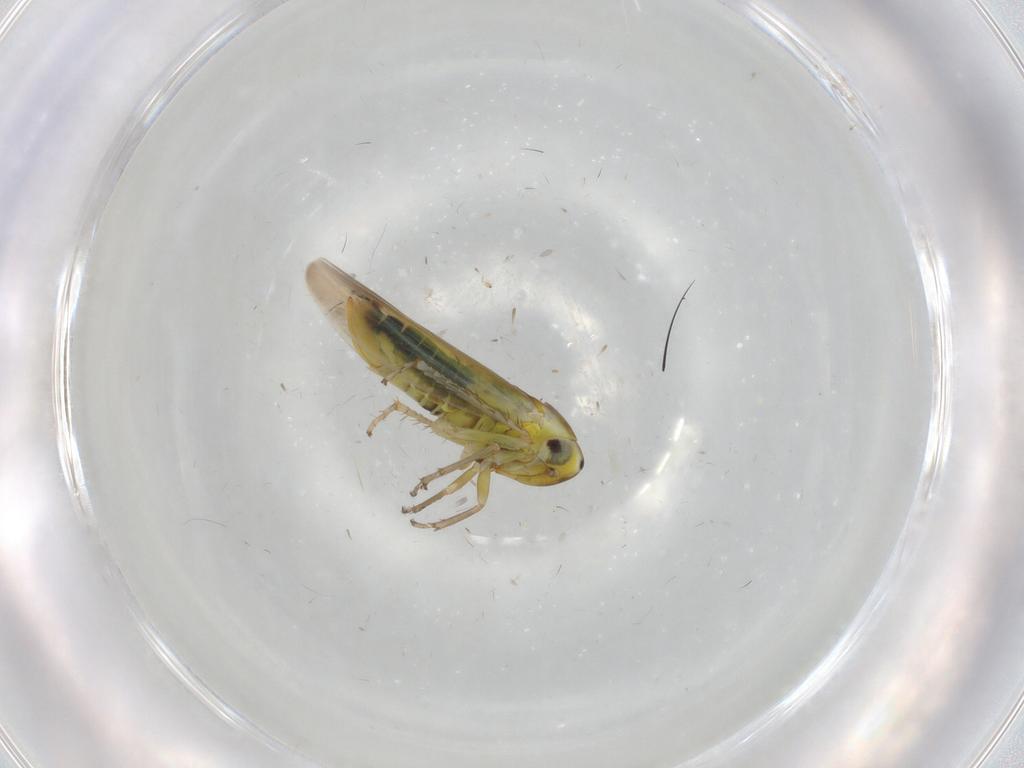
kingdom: Animalia
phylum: Arthropoda
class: Insecta
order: Hemiptera
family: Cicadellidae
